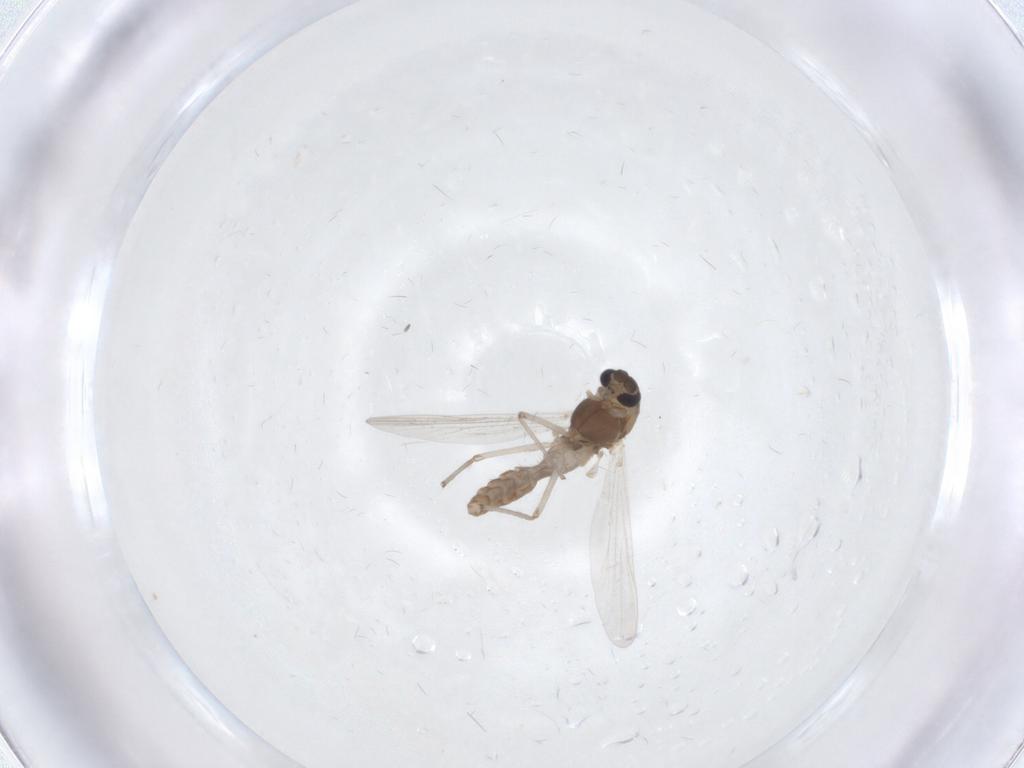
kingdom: Animalia
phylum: Arthropoda
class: Insecta
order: Diptera
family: Chironomidae
